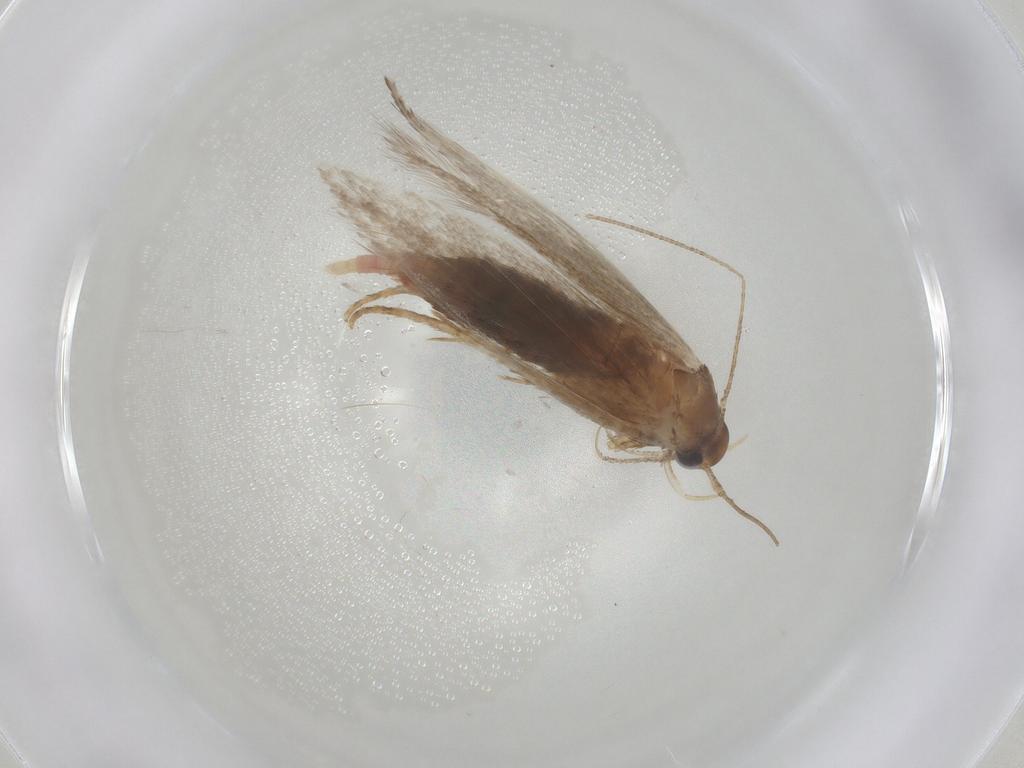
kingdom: Animalia
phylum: Arthropoda
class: Insecta
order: Lepidoptera
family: Gelechiidae
